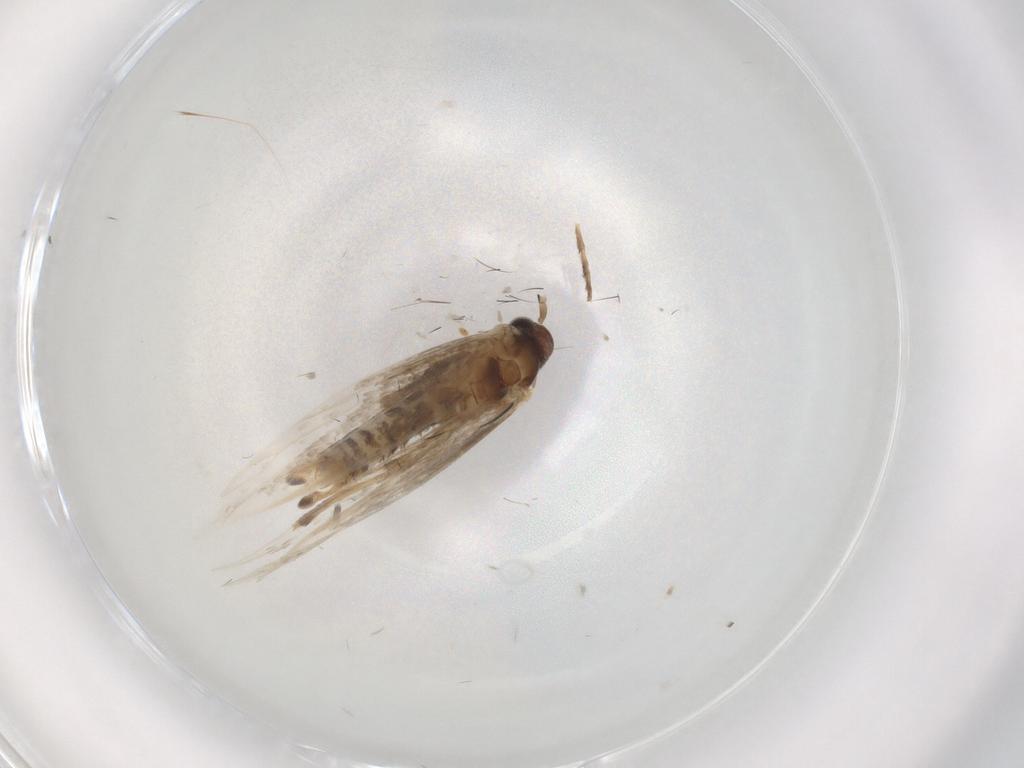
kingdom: Animalia
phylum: Arthropoda
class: Insecta
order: Lepidoptera
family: Gracillariidae
